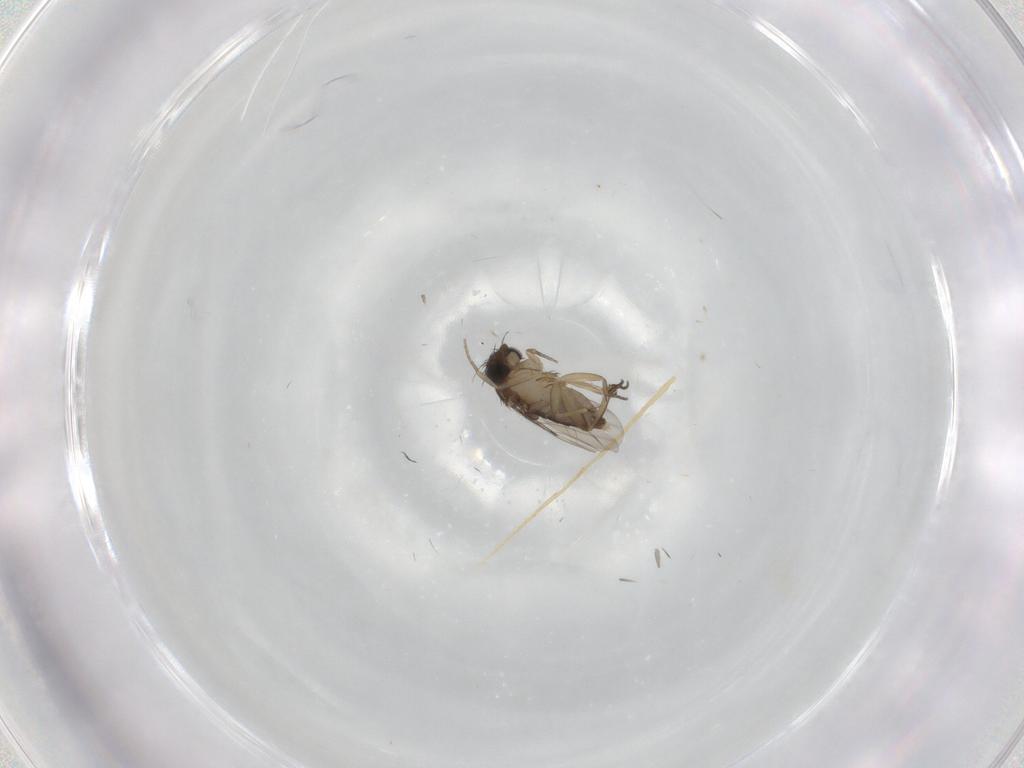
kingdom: Animalia
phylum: Arthropoda
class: Insecta
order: Diptera
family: Phoridae
